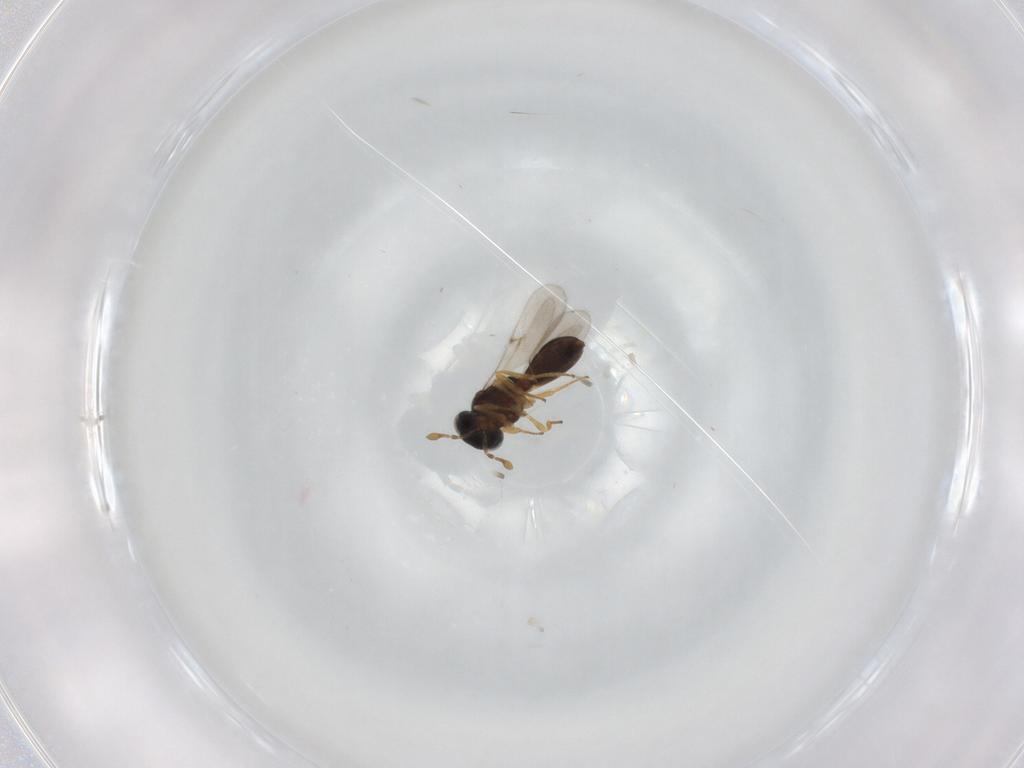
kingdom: Animalia
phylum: Arthropoda
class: Insecta
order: Hymenoptera
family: Scelionidae
